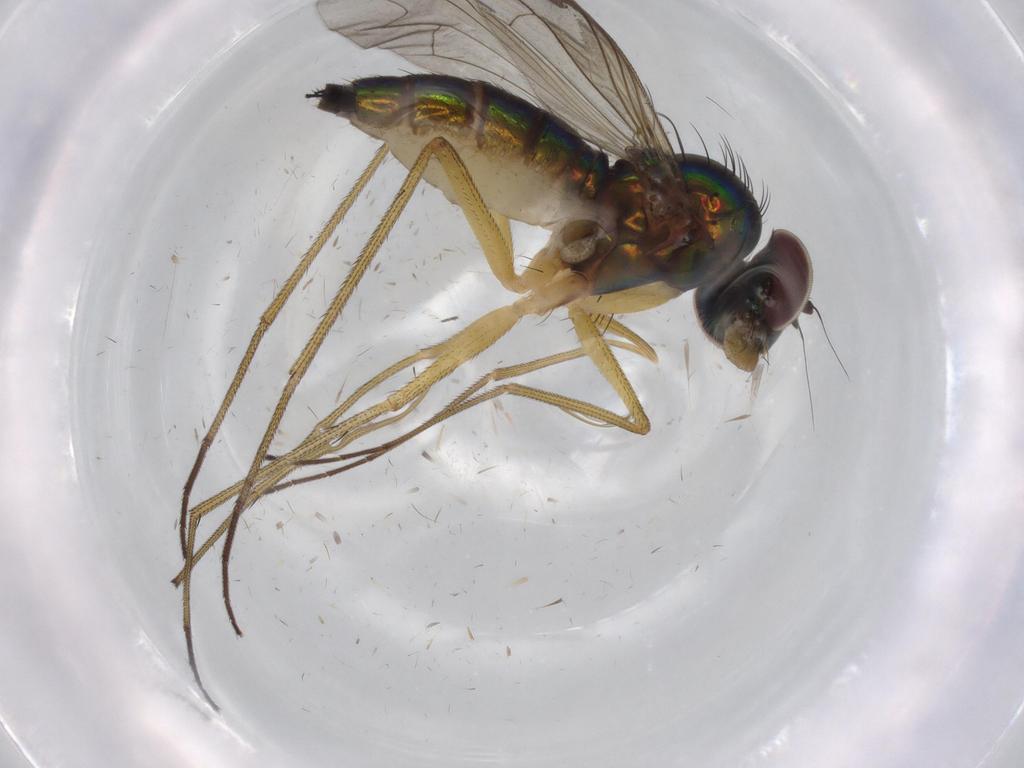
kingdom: Animalia
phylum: Arthropoda
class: Insecta
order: Diptera
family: Dolichopodidae
